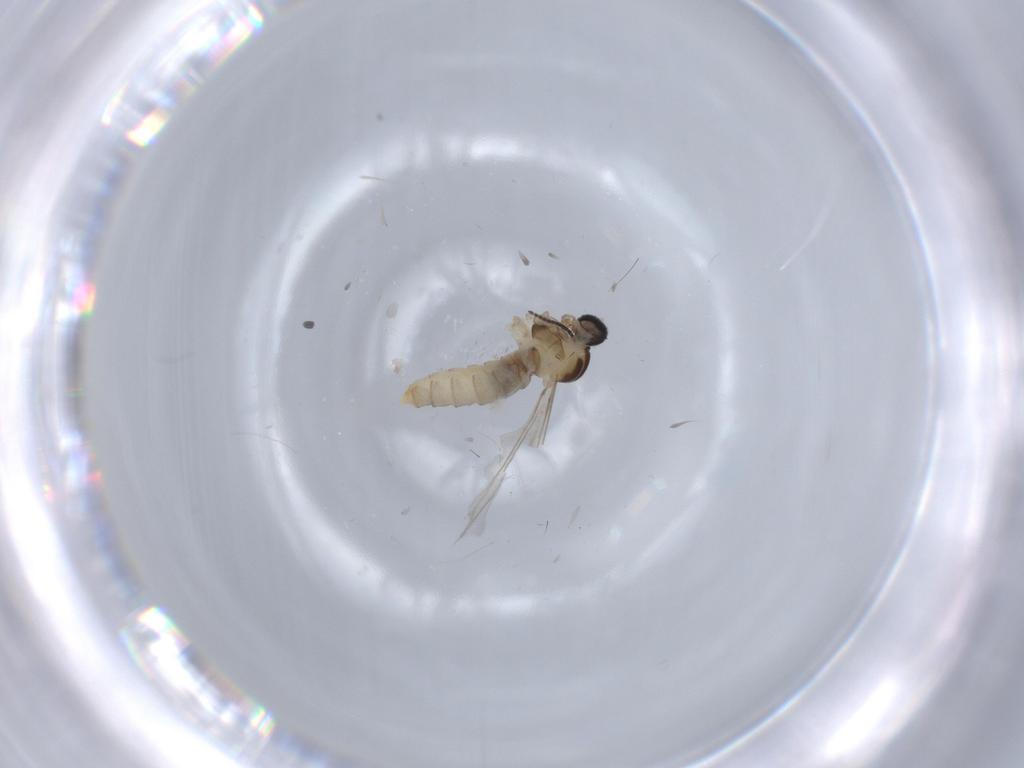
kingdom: Animalia
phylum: Arthropoda
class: Insecta
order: Diptera
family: Cecidomyiidae
